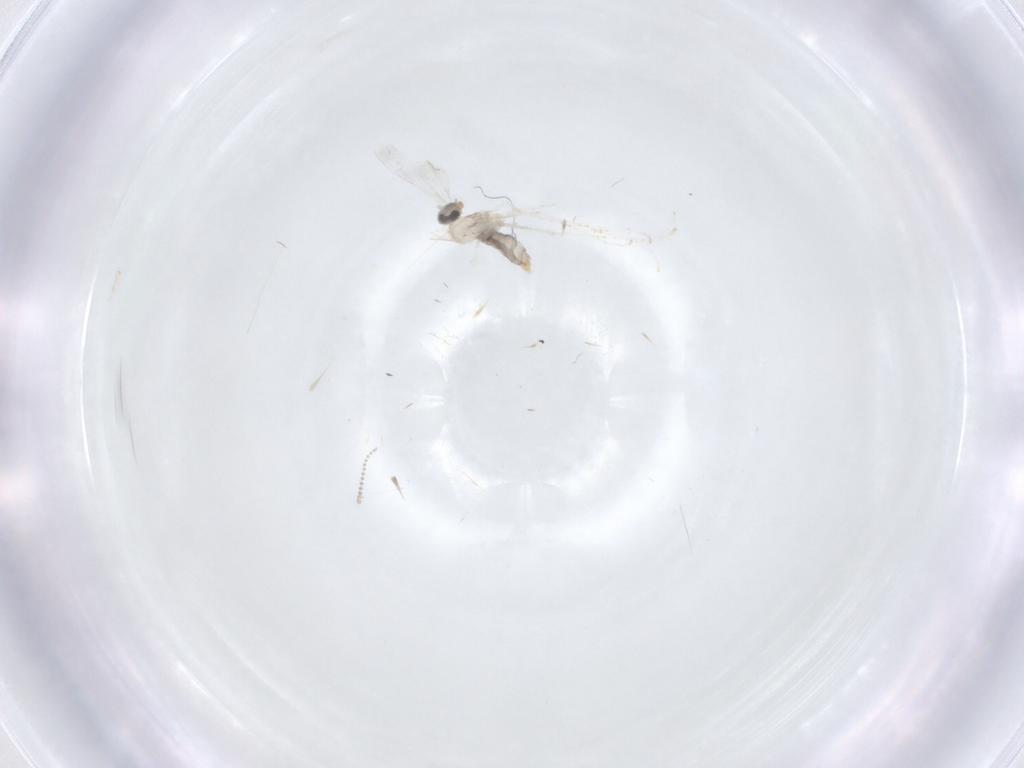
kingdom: Animalia
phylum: Arthropoda
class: Insecta
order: Diptera
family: Cecidomyiidae
